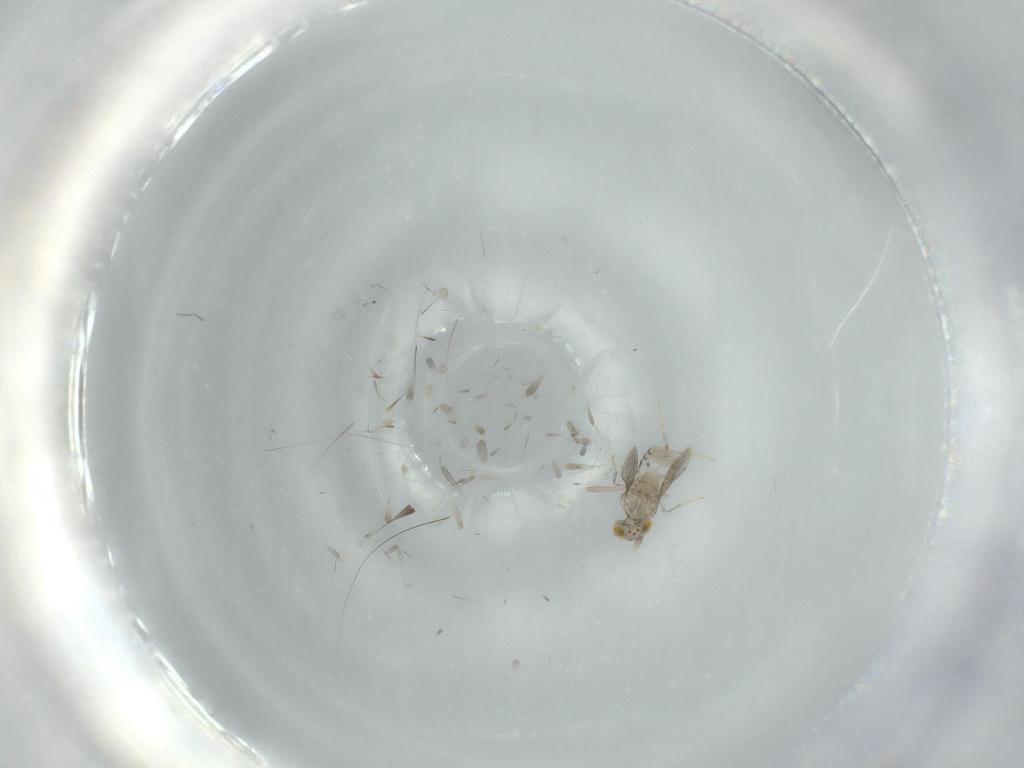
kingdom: Animalia
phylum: Arthropoda
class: Insecta
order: Hymenoptera
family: Aphelinidae
